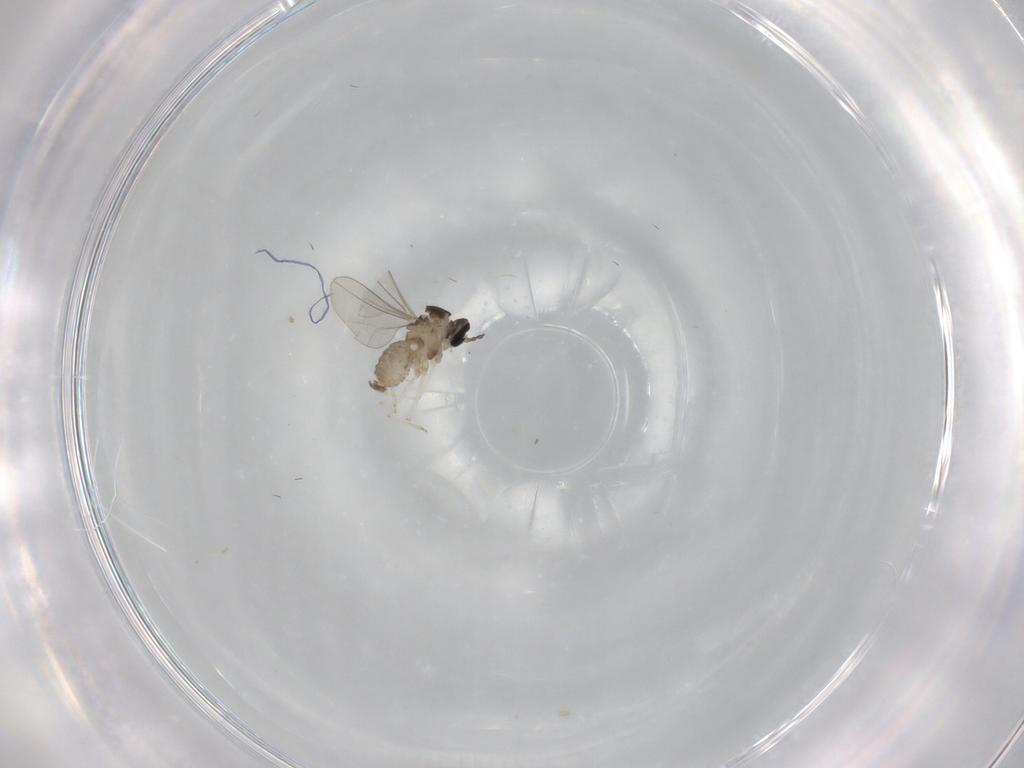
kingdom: Animalia
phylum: Arthropoda
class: Insecta
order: Diptera
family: Cecidomyiidae
